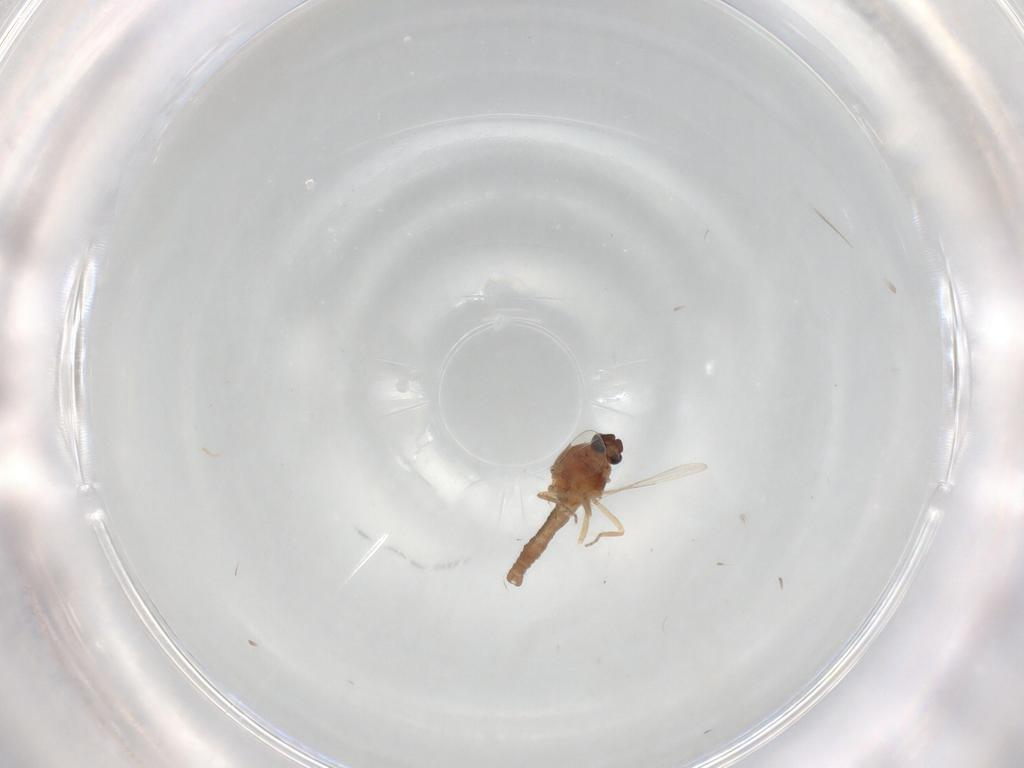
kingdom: Animalia
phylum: Arthropoda
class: Insecta
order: Diptera
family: Ceratopogonidae
